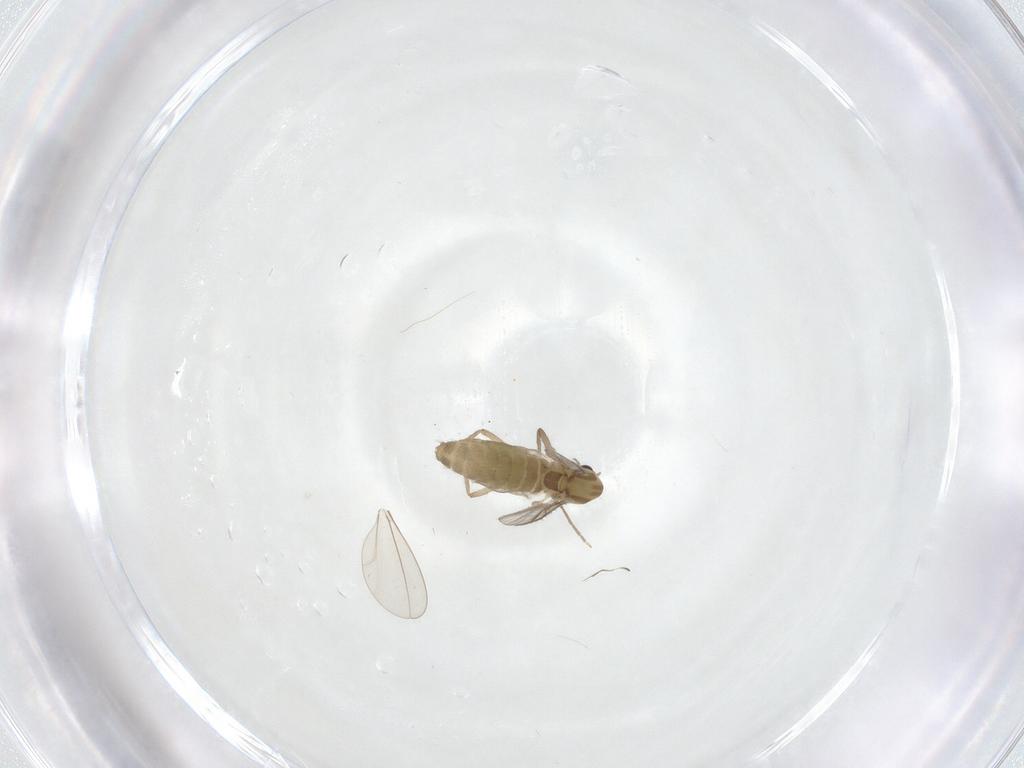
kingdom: Animalia
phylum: Arthropoda
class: Insecta
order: Diptera
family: Chironomidae
